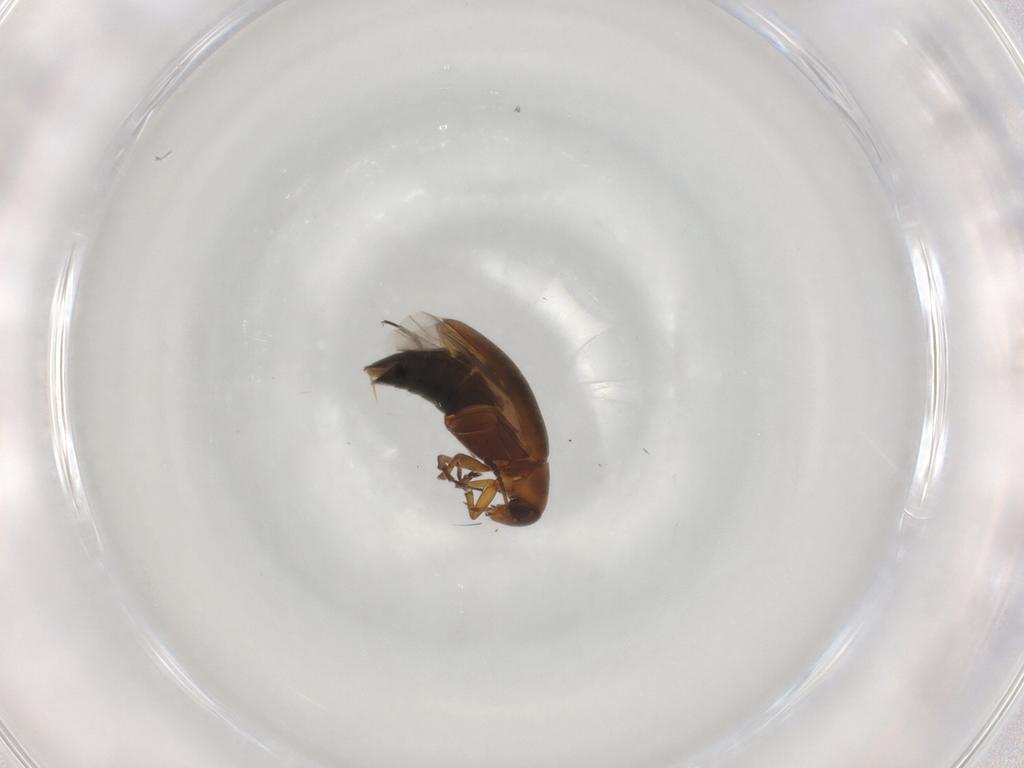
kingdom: Animalia
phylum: Arthropoda
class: Insecta
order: Coleoptera
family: Scraptiidae
